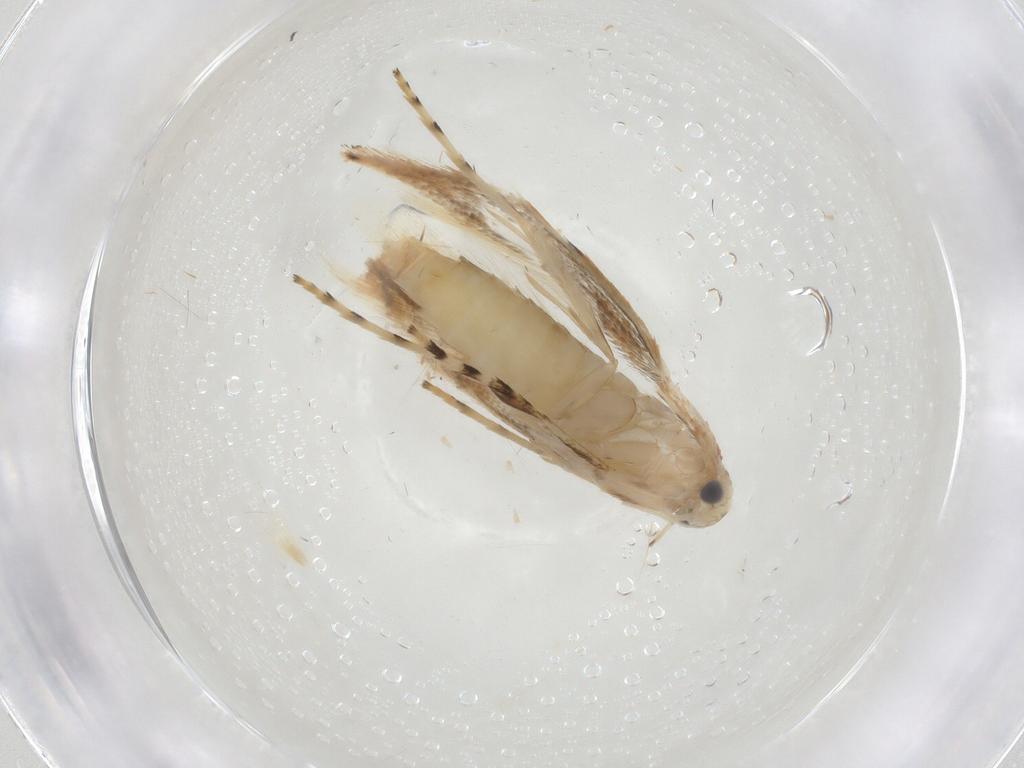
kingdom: Animalia
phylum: Arthropoda
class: Insecta
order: Lepidoptera
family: Gracillariidae
